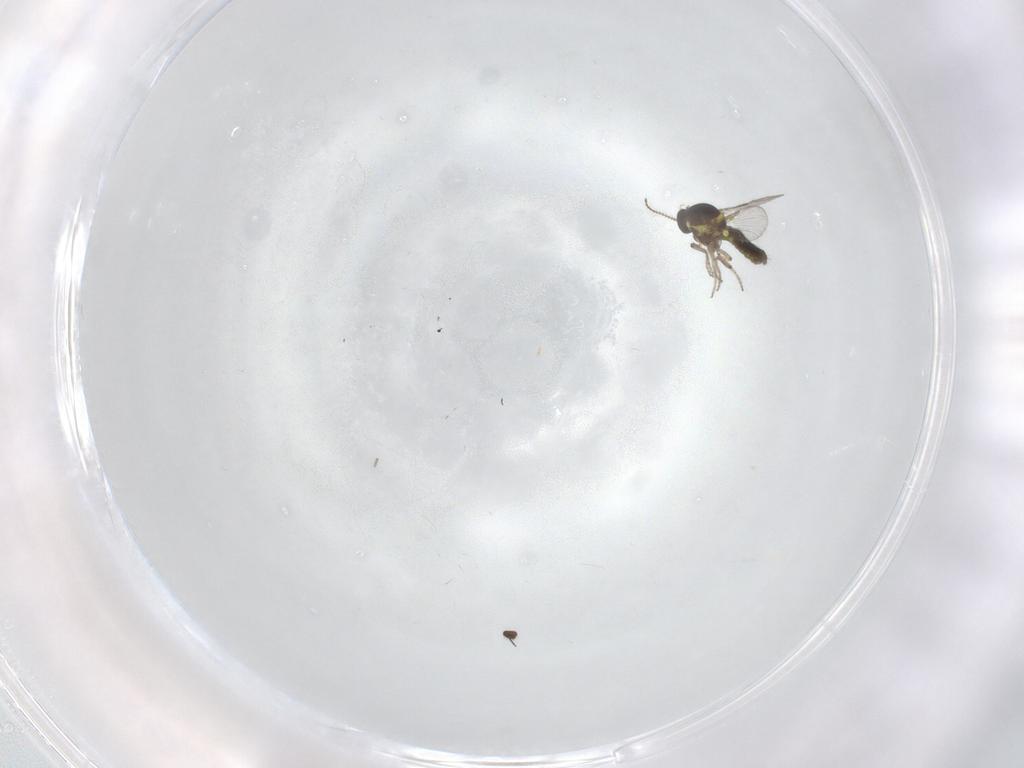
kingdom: Animalia
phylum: Arthropoda
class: Insecta
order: Diptera
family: Dolichopodidae
